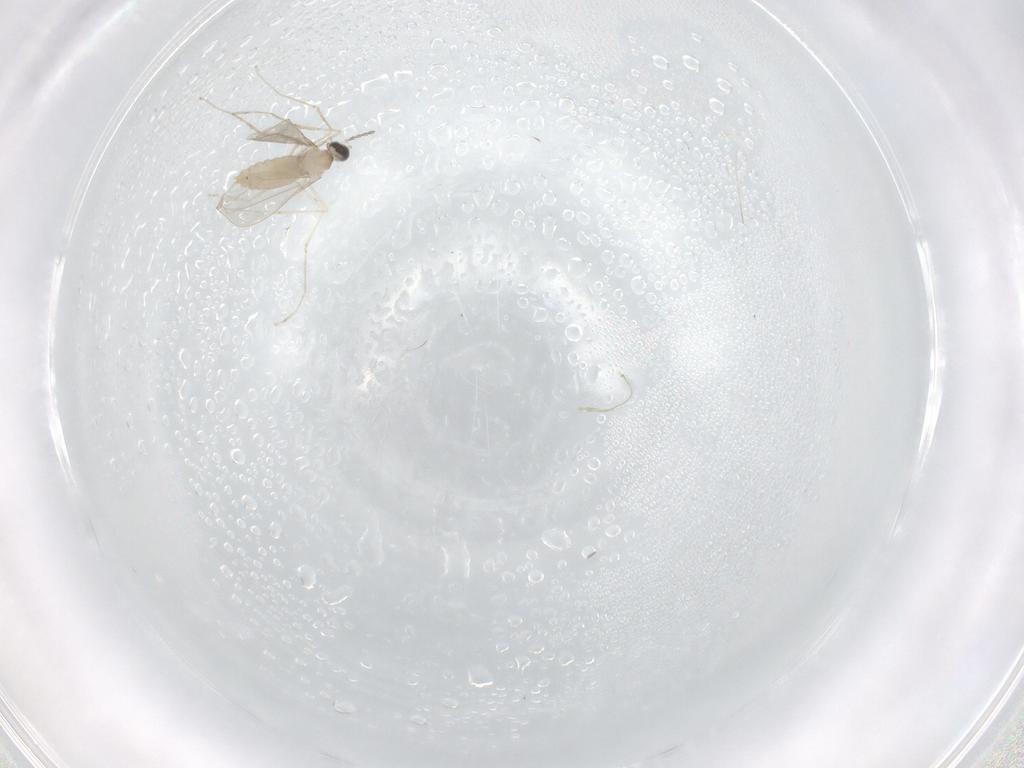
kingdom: Animalia
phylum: Arthropoda
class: Insecta
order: Diptera
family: Cecidomyiidae
